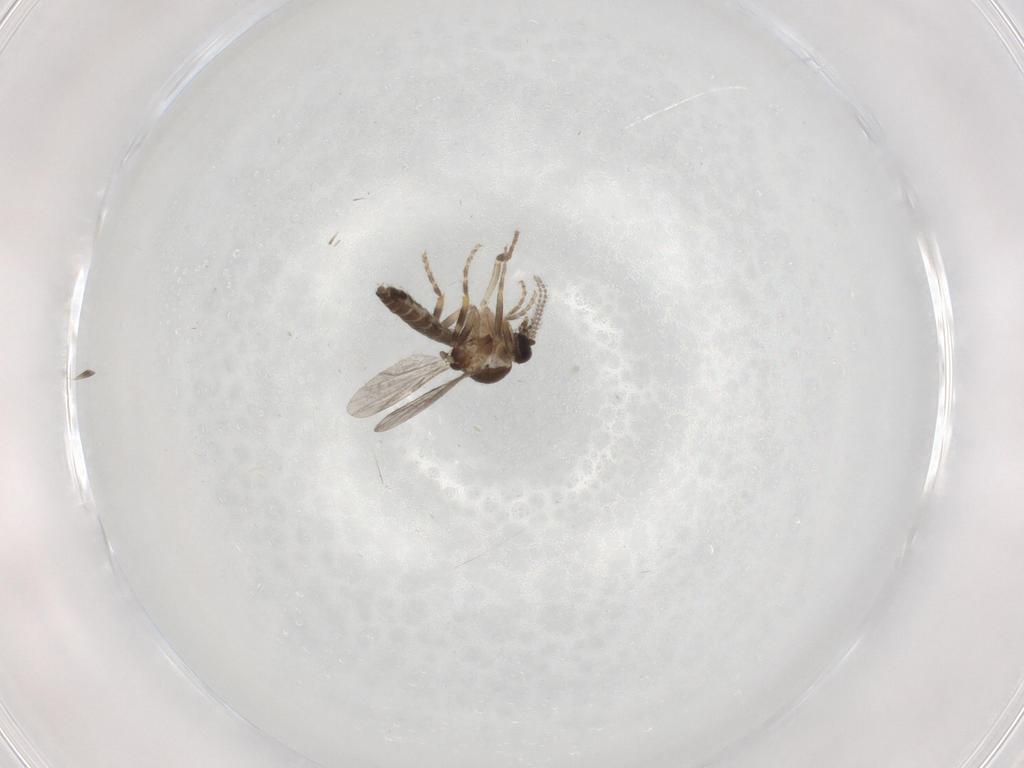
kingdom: Animalia
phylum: Arthropoda
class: Insecta
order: Diptera
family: Ceratopogonidae
